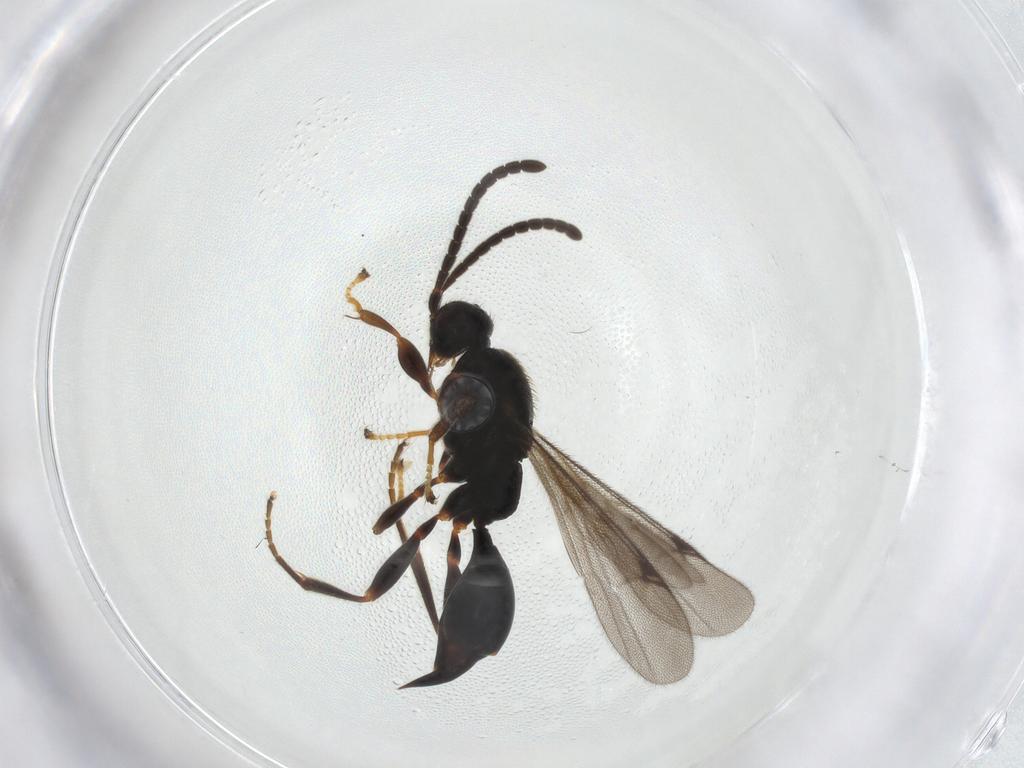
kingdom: Animalia
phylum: Arthropoda
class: Insecta
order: Hymenoptera
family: Proctotrupidae
